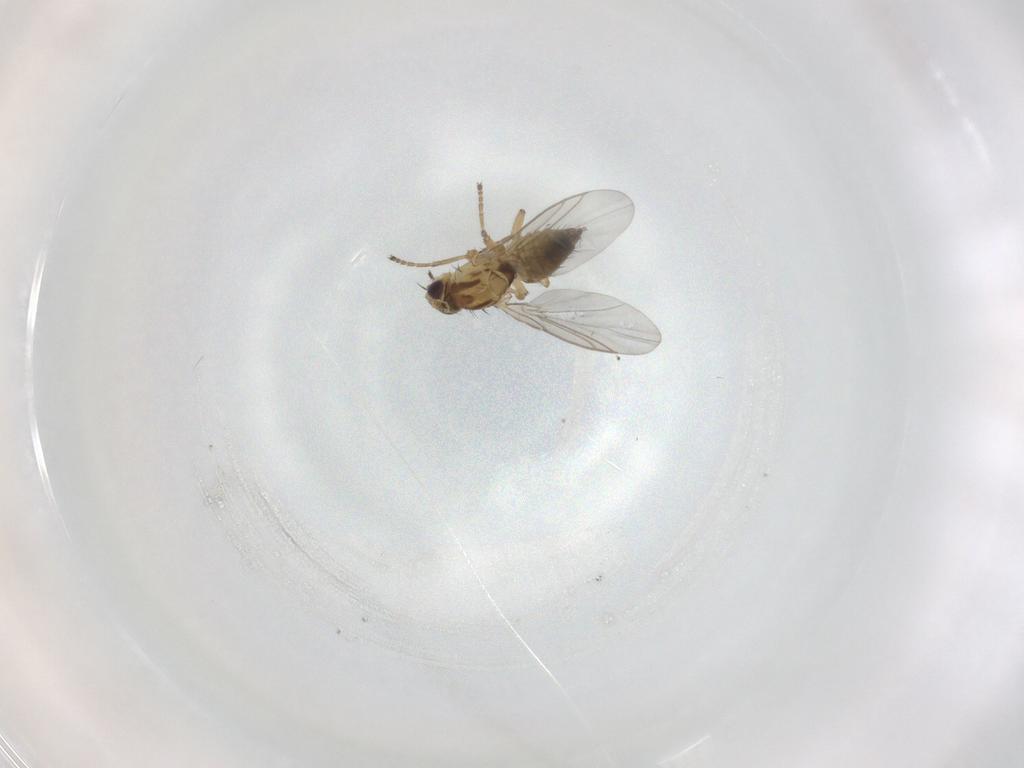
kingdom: Animalia
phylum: Arthropoda
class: Insecta
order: Diptera
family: Agromyzidae
